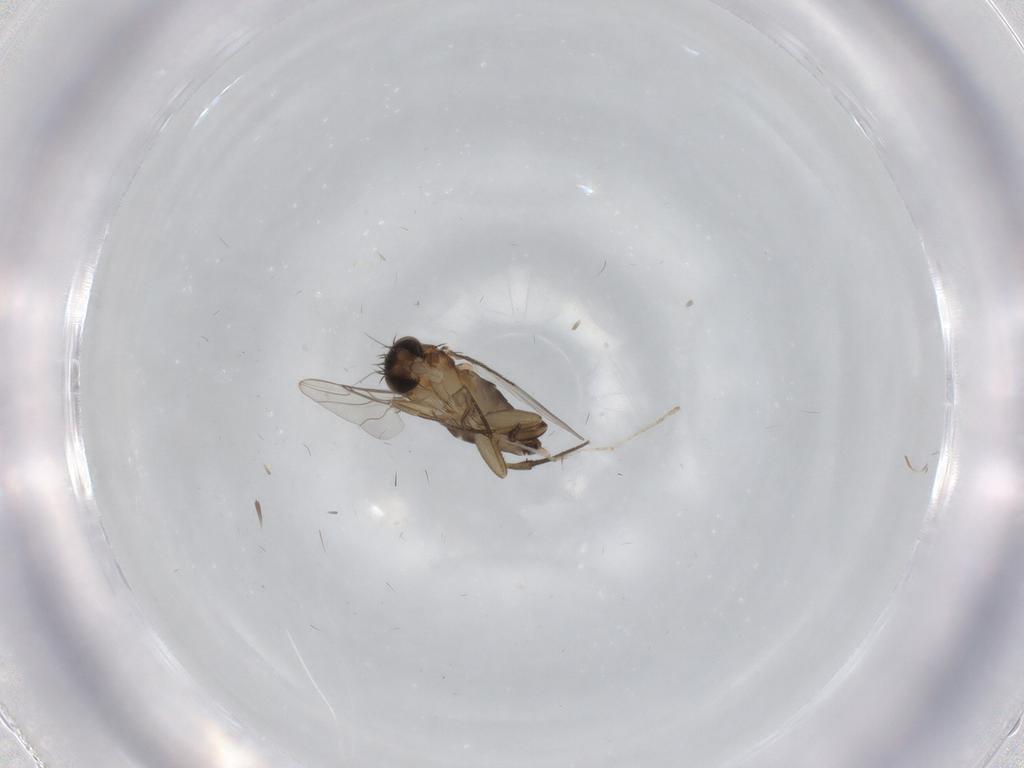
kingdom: Animalia
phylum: Arthropoda
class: Insecta
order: Diptera
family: Phoridae
